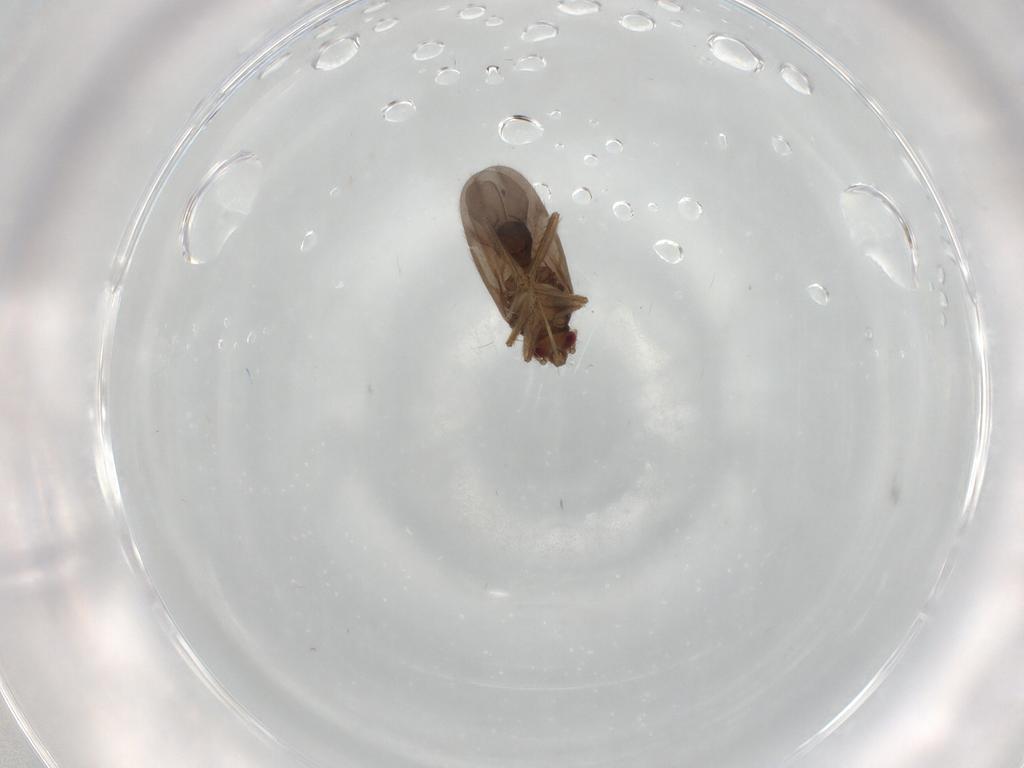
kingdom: Animalia
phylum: Arthropoda
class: Insecta
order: Hemiptera
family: Ceratocombidae
